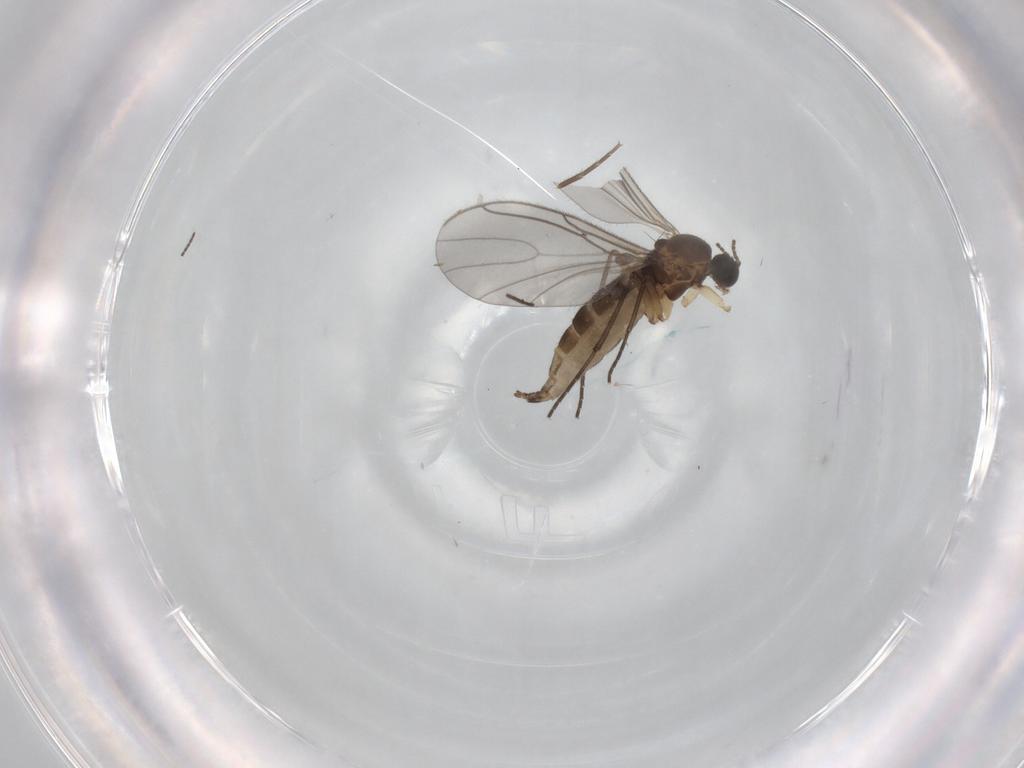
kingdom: Animalia
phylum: Arthropoda
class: Insecta
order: Diptera
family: Sciaridae
